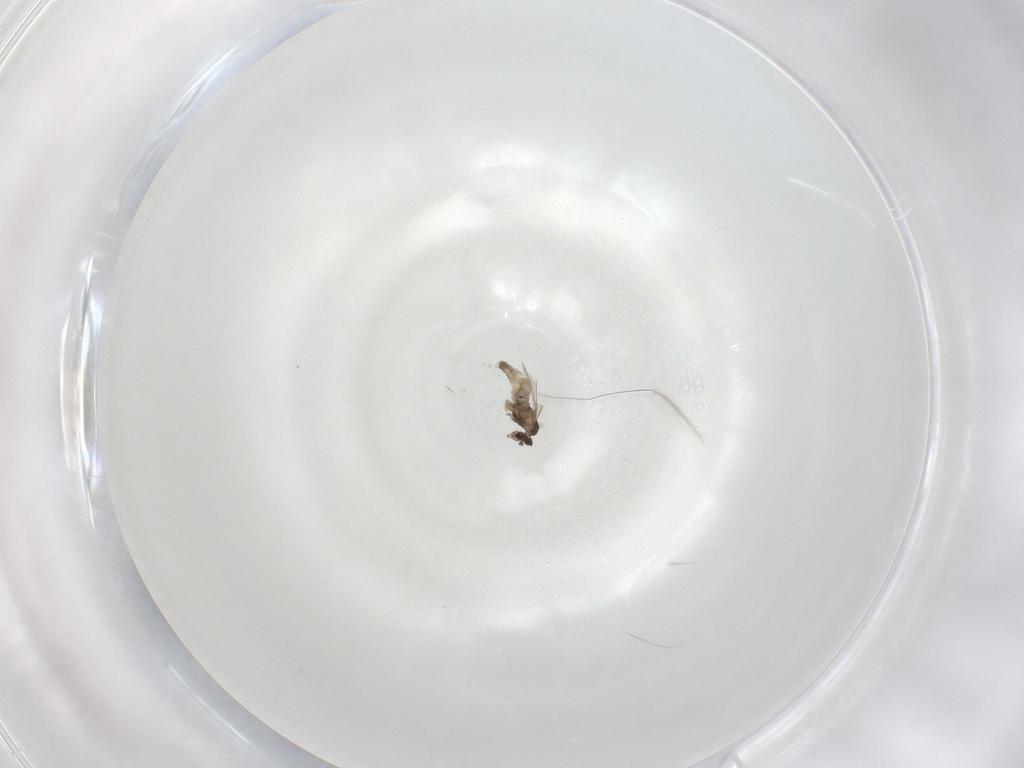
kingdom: Animalia
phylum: Arthropoda
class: Insecta
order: Diptera
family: Cecidomyiidae
